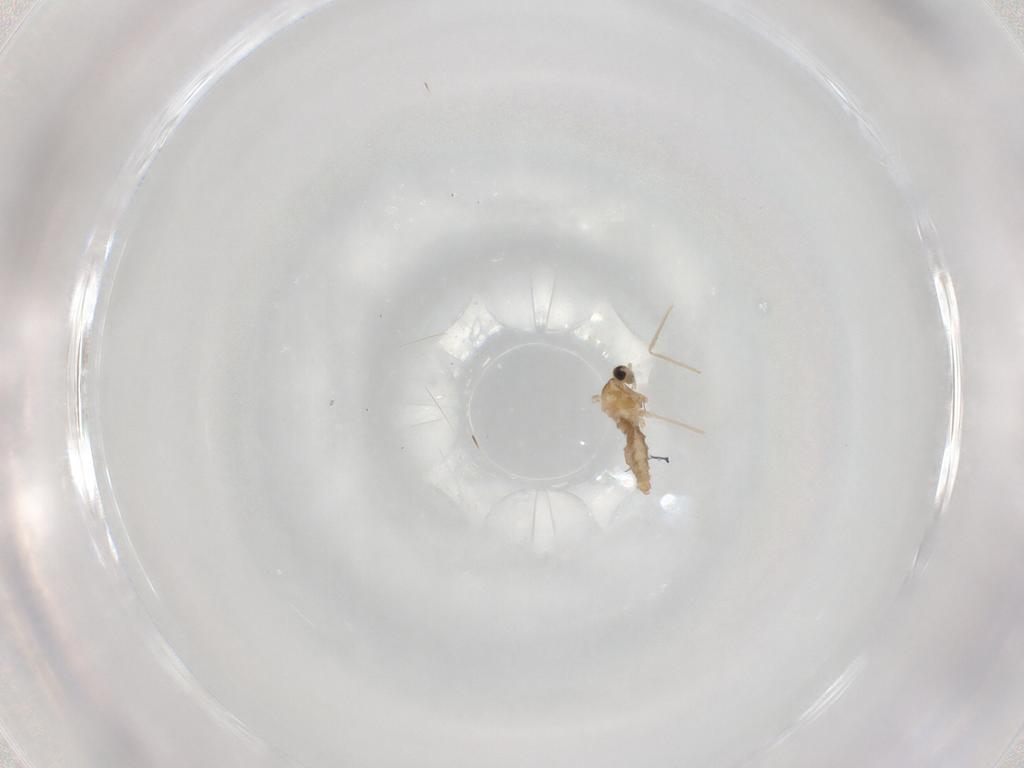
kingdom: Animalia
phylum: Arthropoda
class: Insecta
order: Diptera
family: Cecidomyiidae
